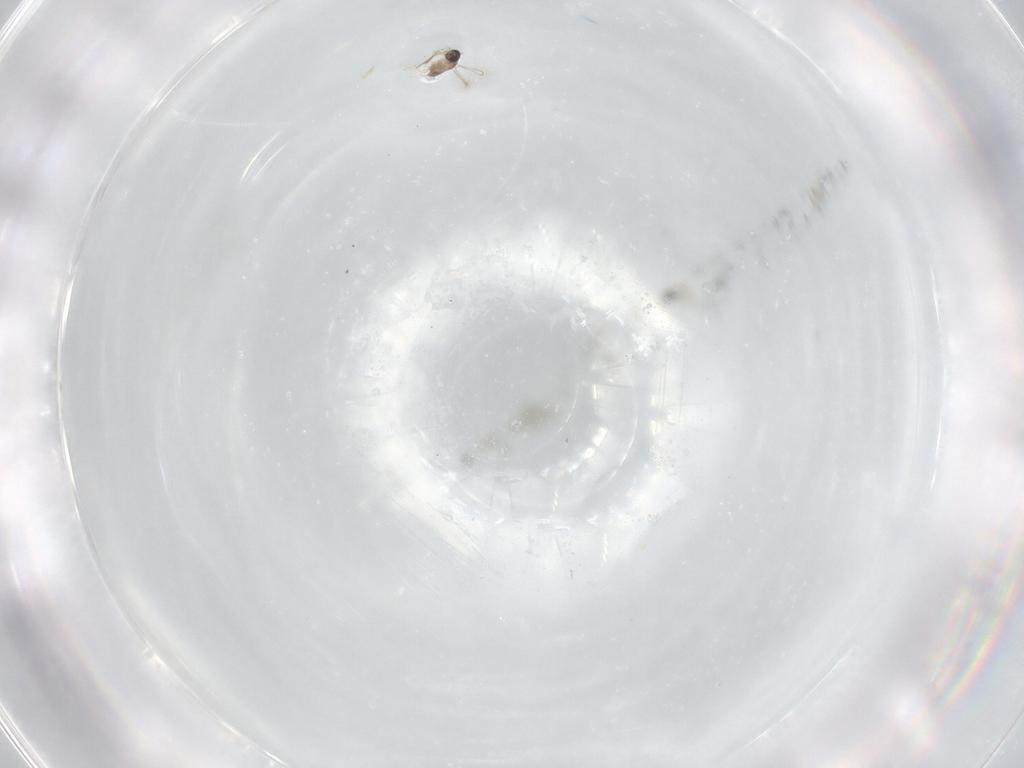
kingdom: Animalia
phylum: Arthropoda
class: Insecta
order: Hymenoptera
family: Mymaridae
